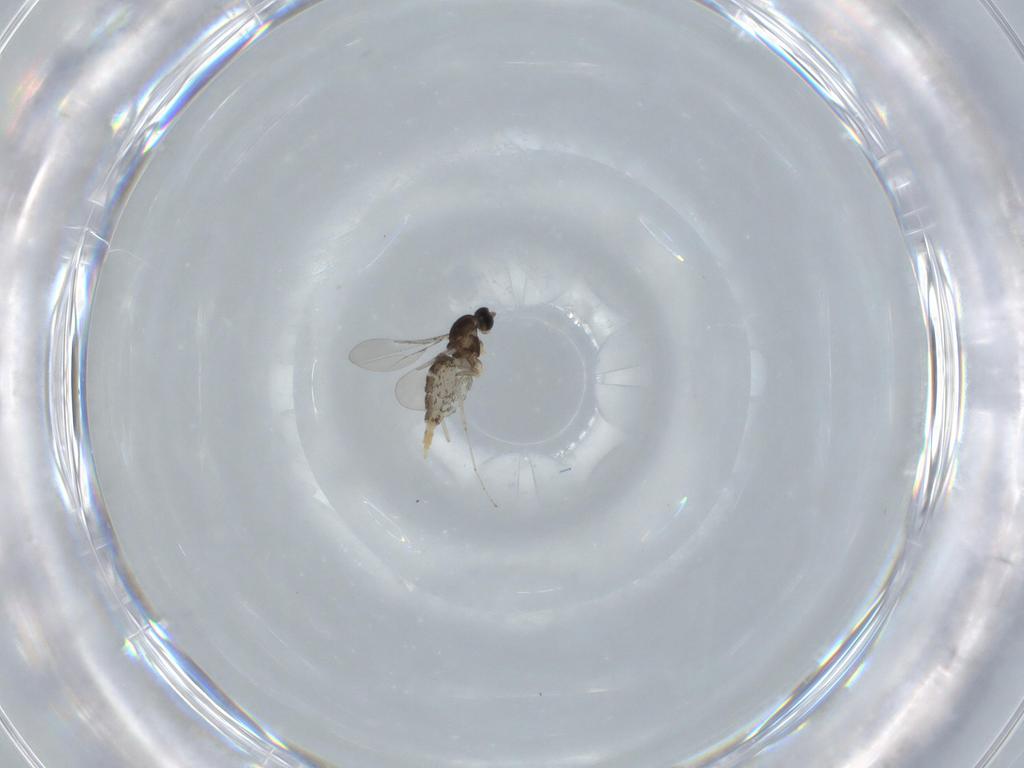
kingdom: Animalia
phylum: Arthropoda
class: Insecta
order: Diptera
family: Cecidomyiidae
